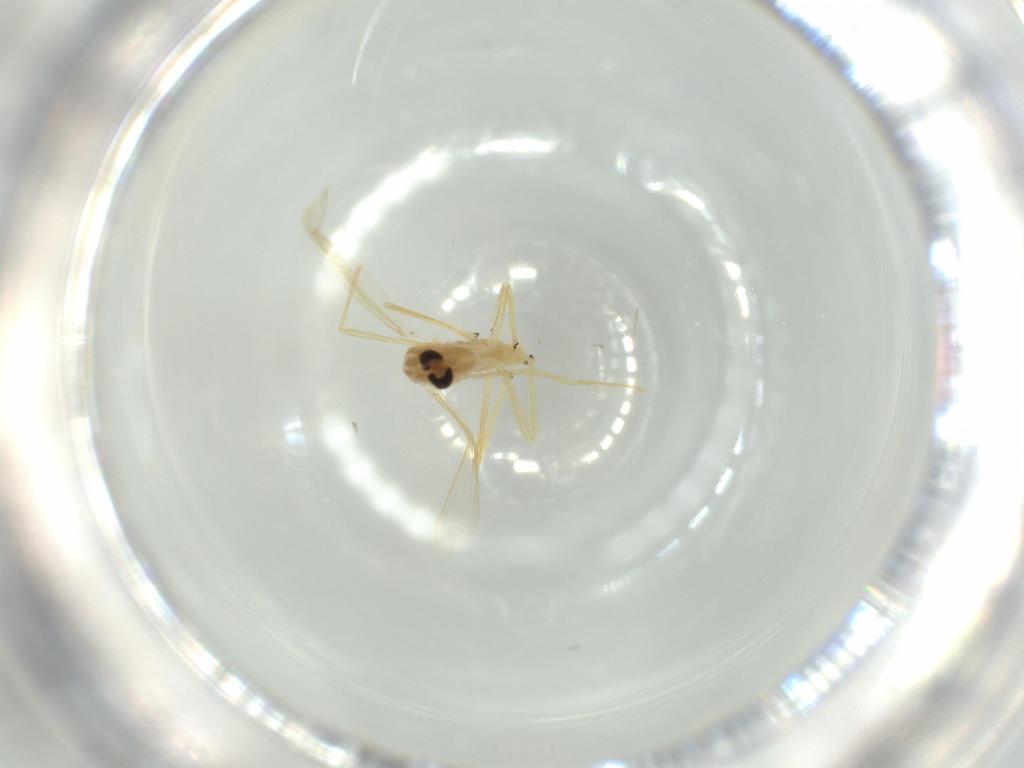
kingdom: Animalia
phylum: Arthropoda
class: Insecta
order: Diptera
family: Chironomidae
